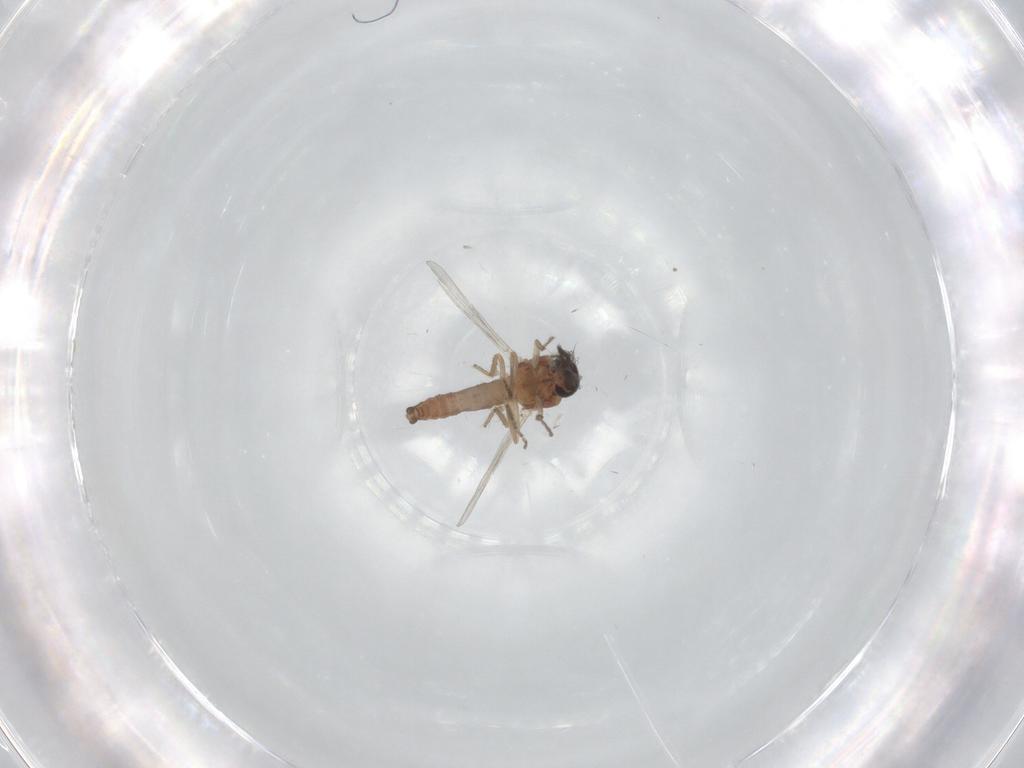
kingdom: Animalia
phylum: Arthropoda
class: Insecta
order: Diptera
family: Ceratopogonidae
